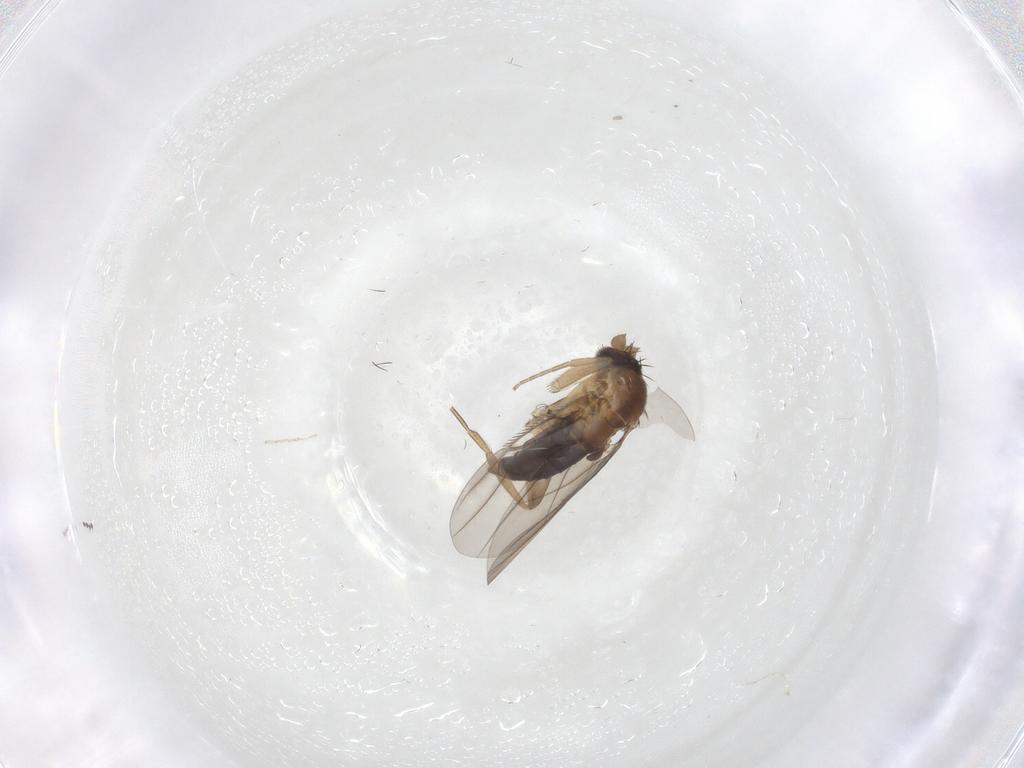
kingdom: Animalia
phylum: Arthropoda
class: Insecta
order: Diptera
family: Phoridae
